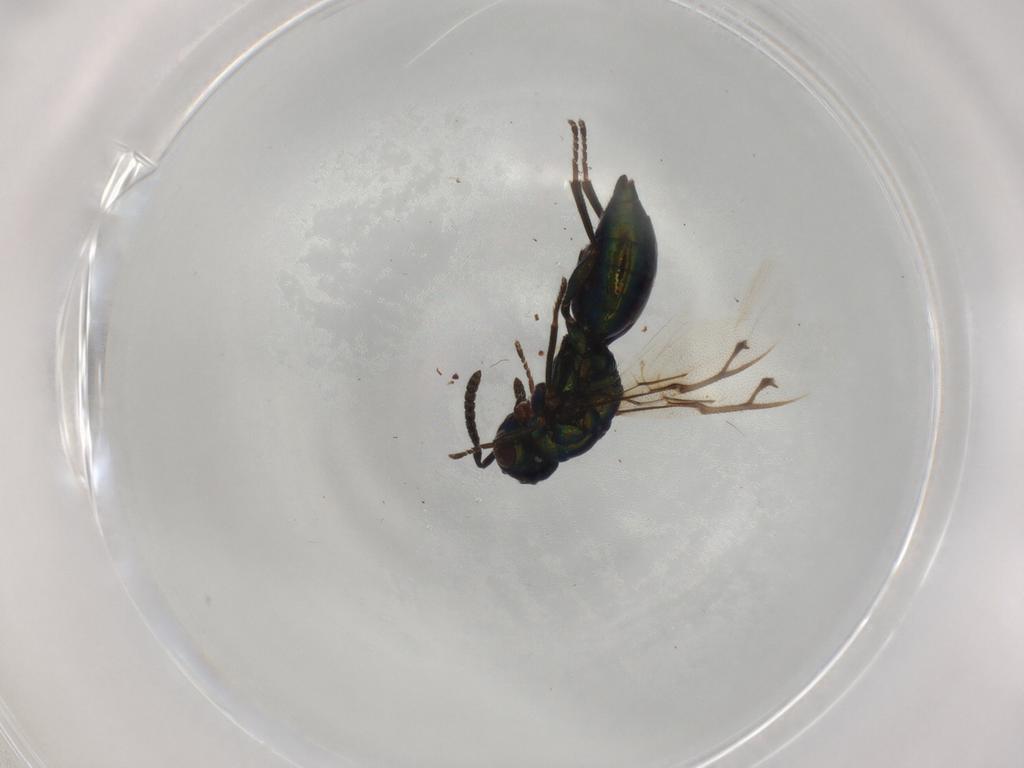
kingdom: Animalia
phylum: Arthropoda
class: Insecta
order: Hymenoptera
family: Pteromalidae
